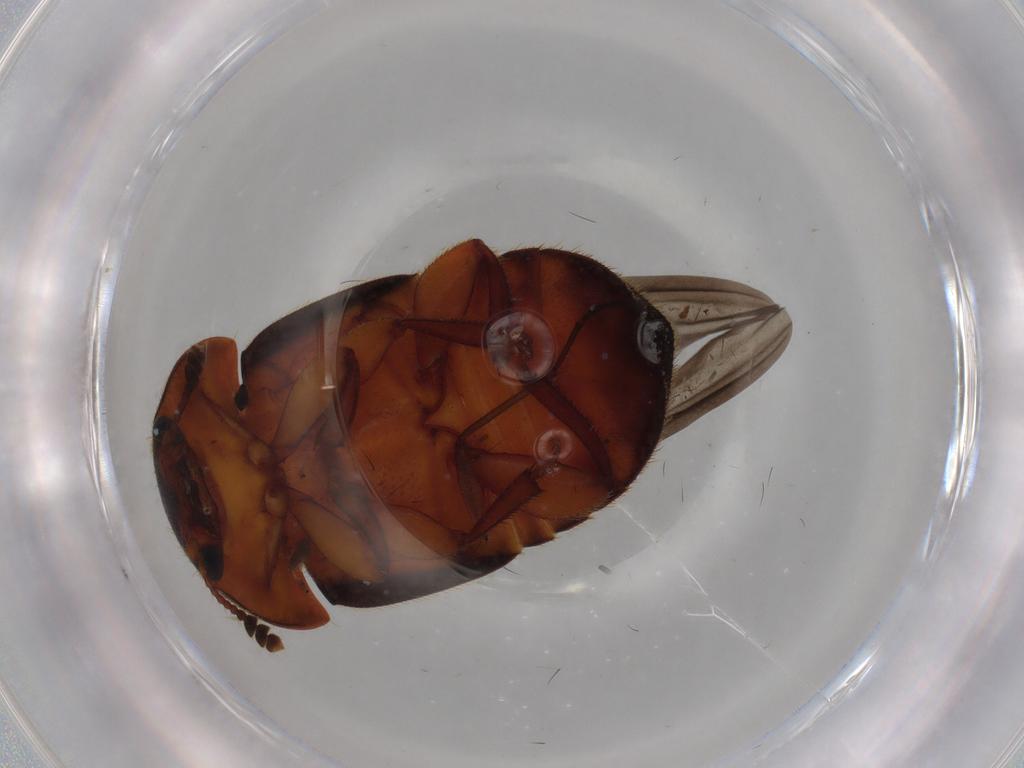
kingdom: Animalia
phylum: Arthropoda
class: Insecta
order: Coleoptera
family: Nitidulidae
